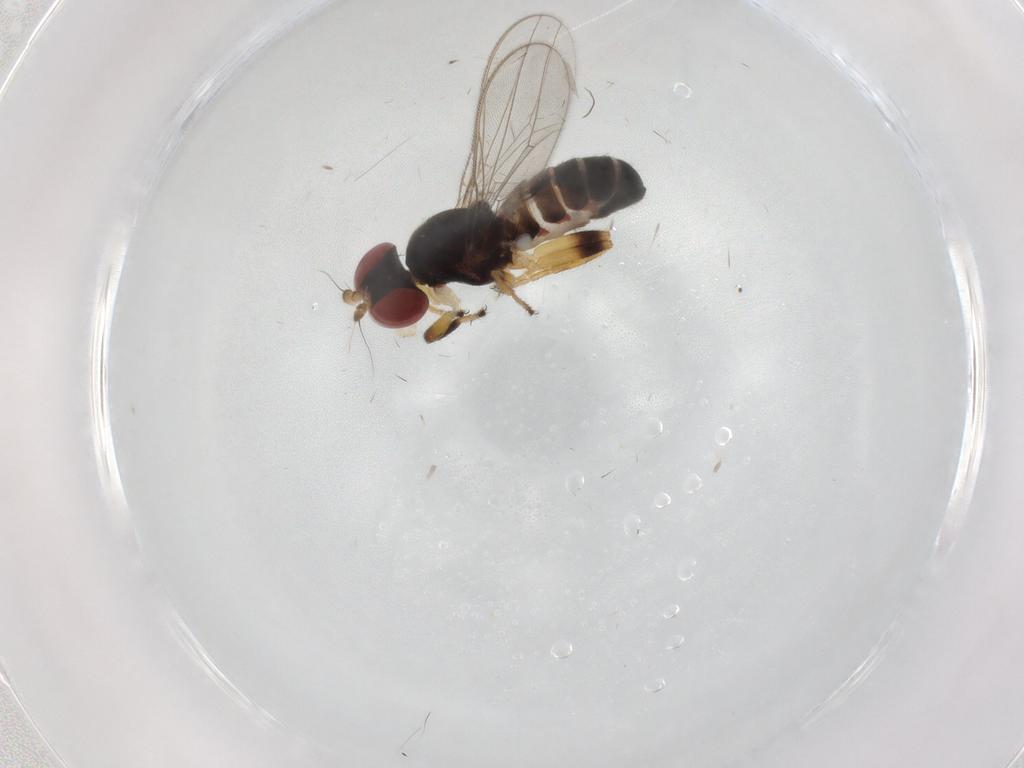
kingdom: Animalia
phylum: Arthropoda
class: Insecta
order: Diptera
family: Aulacigastridae
